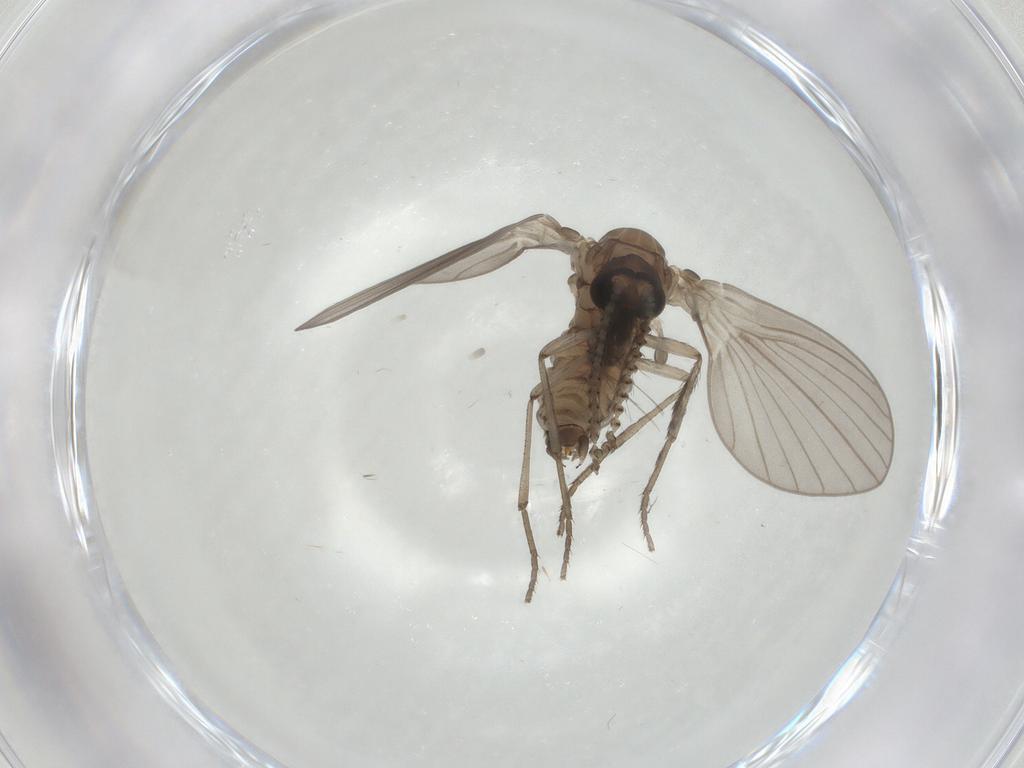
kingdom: Animalia
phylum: Arthropoda
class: Insecta
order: Diptera
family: Psychodidae
